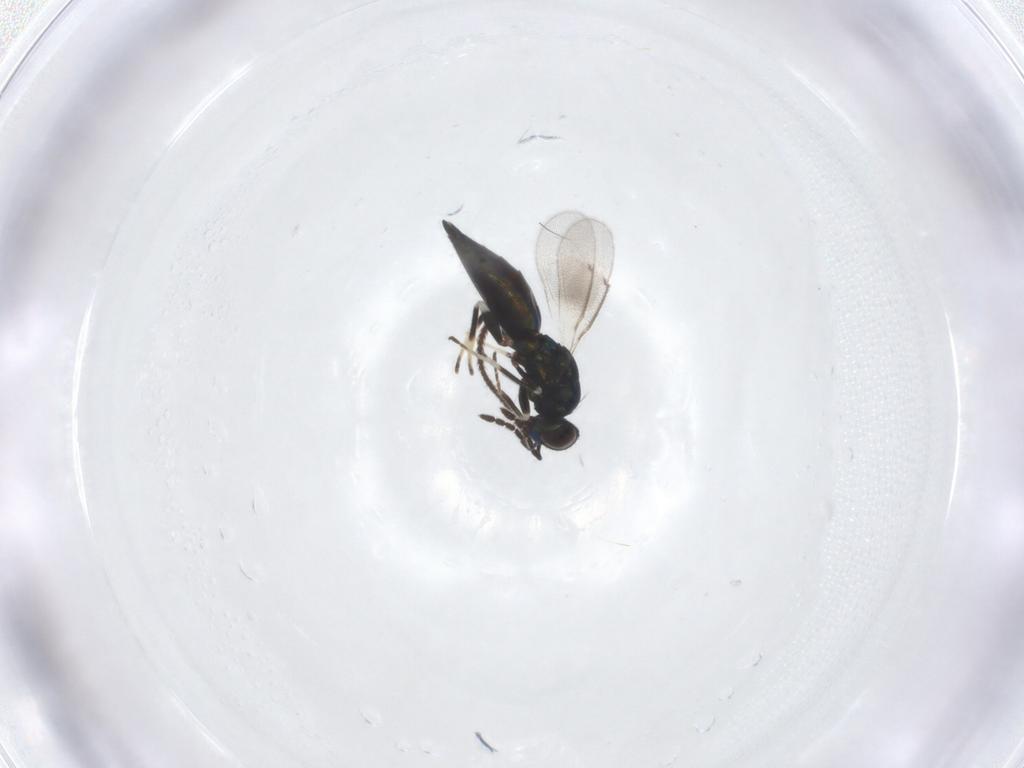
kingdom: Animalia
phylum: Arthropoda
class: Insecta
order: Hymenoptera
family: Eulophidae
